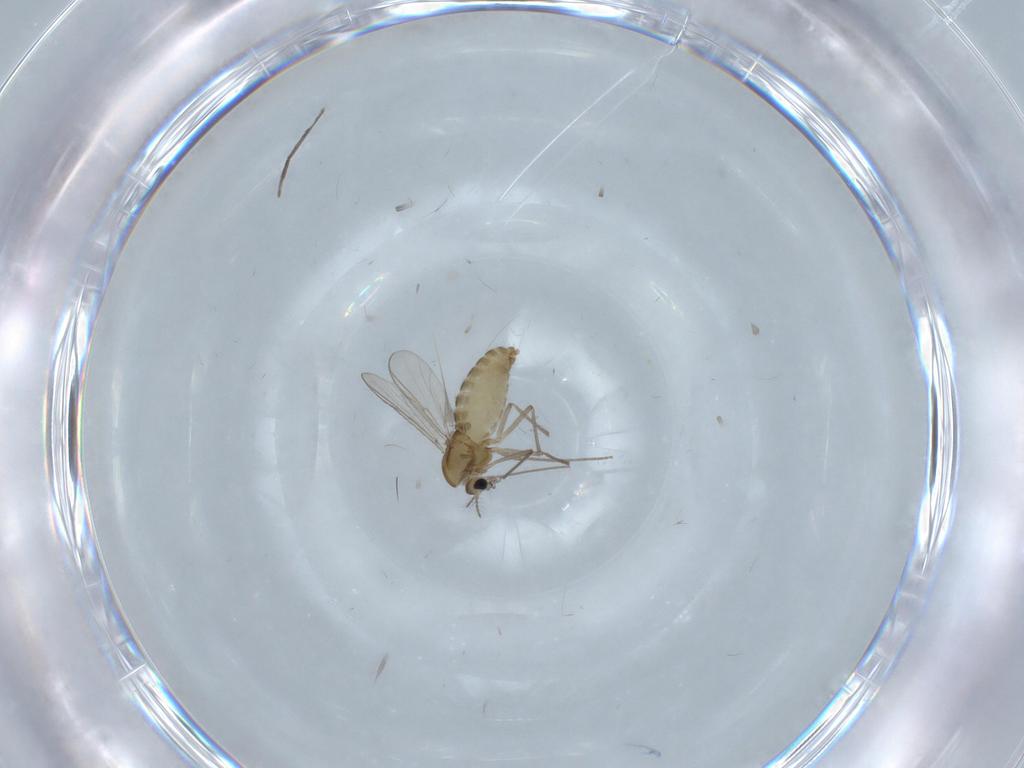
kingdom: Animalia
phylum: Arthropoda
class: Insecta
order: Diptera
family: Chironomidae
